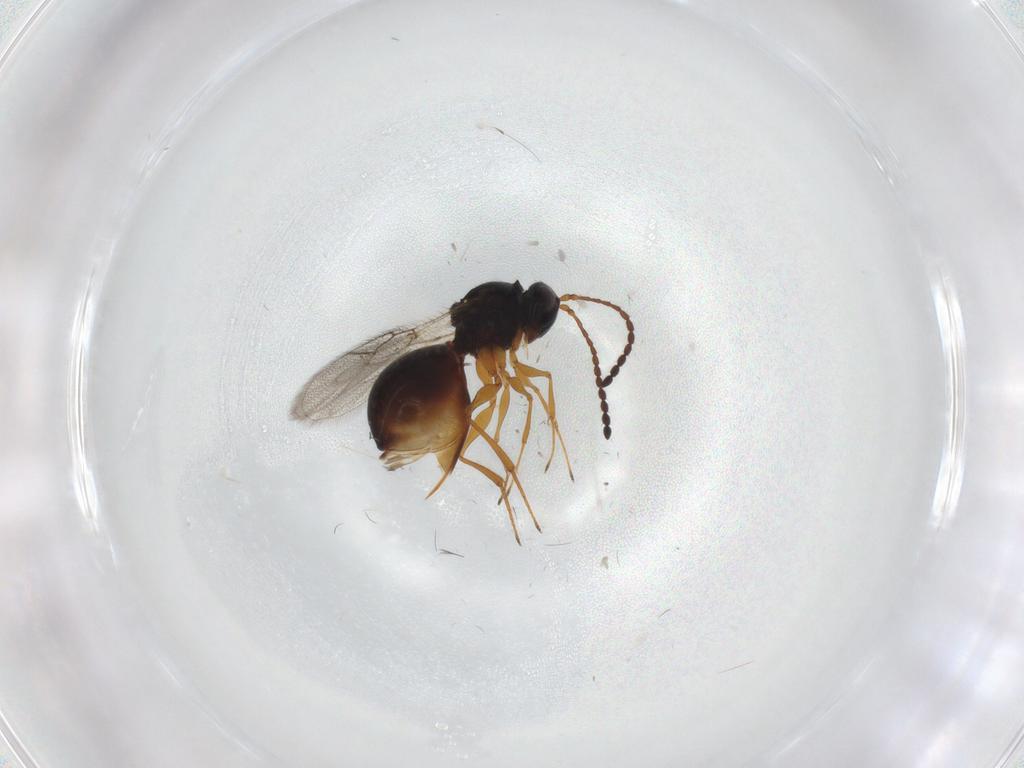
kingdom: Animalia
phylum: Arthropoda
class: Insecta
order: Hymenoptera
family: Figitidae
